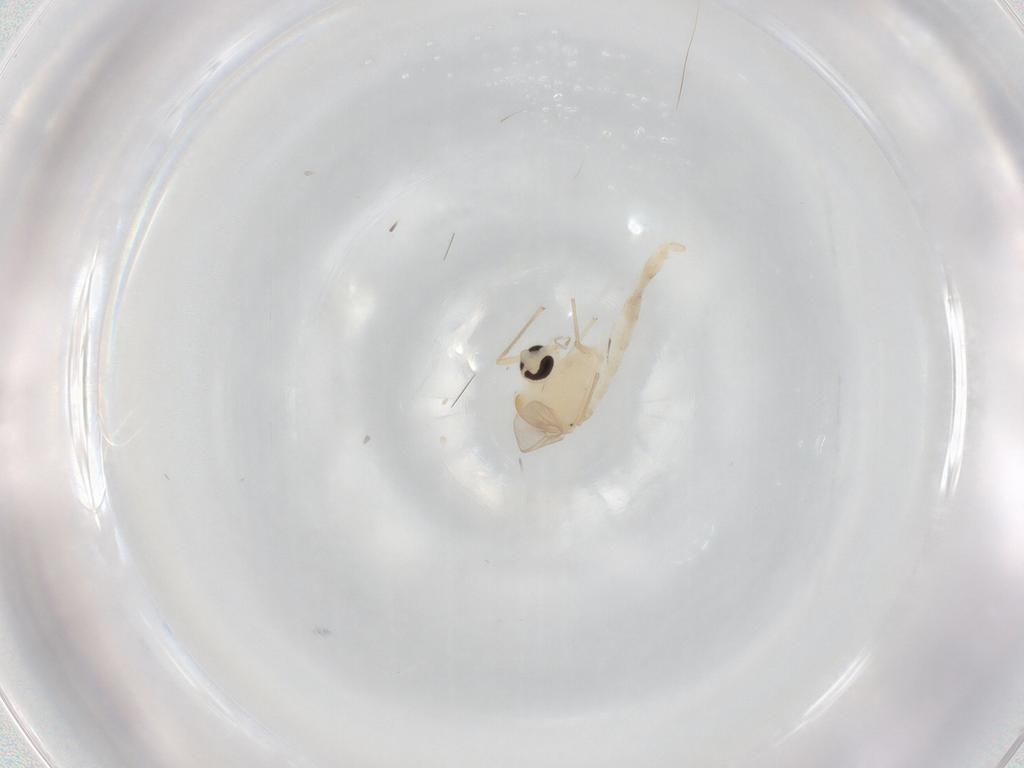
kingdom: Animalia
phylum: Arthropoda
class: Insecta
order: Diptera
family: Chironomidae
